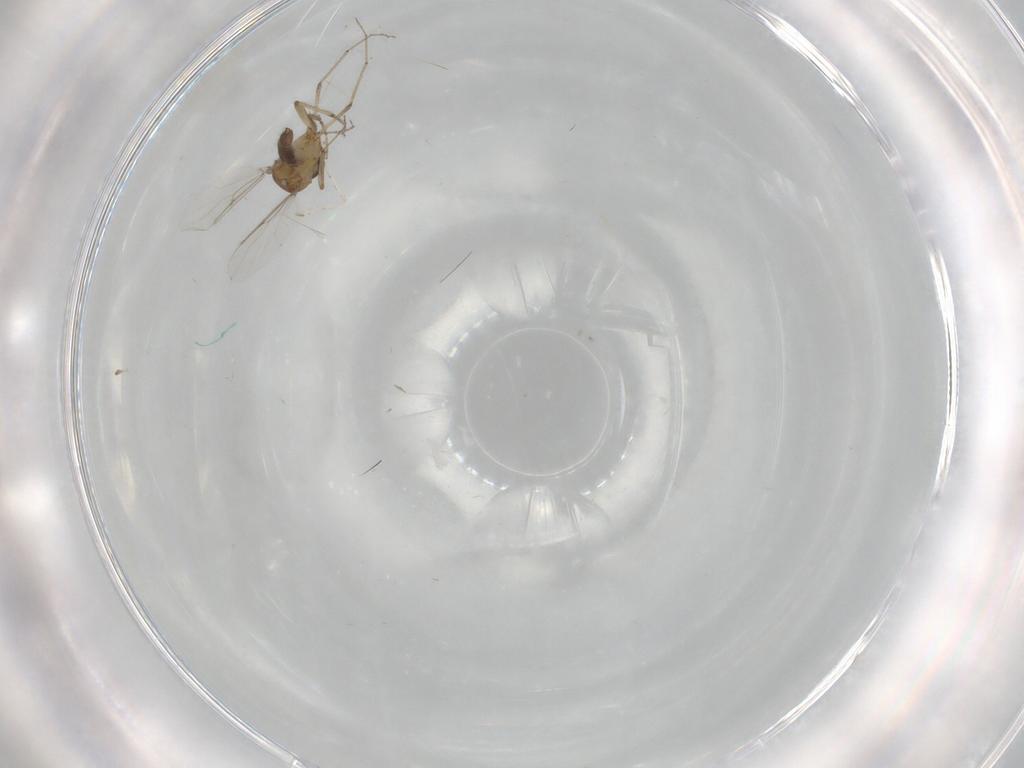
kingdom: Animalia
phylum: Arthropoda
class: Insecta
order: Diptera
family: Cecidomyiidae
